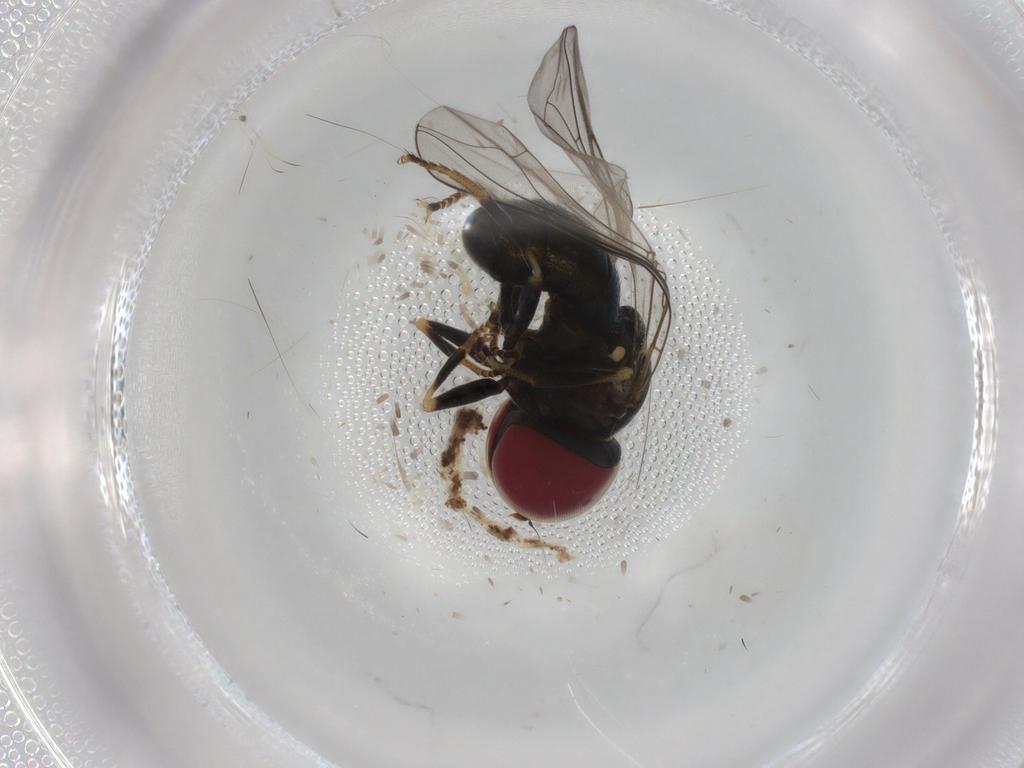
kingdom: Animalia
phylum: Arthropoda
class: Insecta
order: Diptera
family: Pipunculidae
